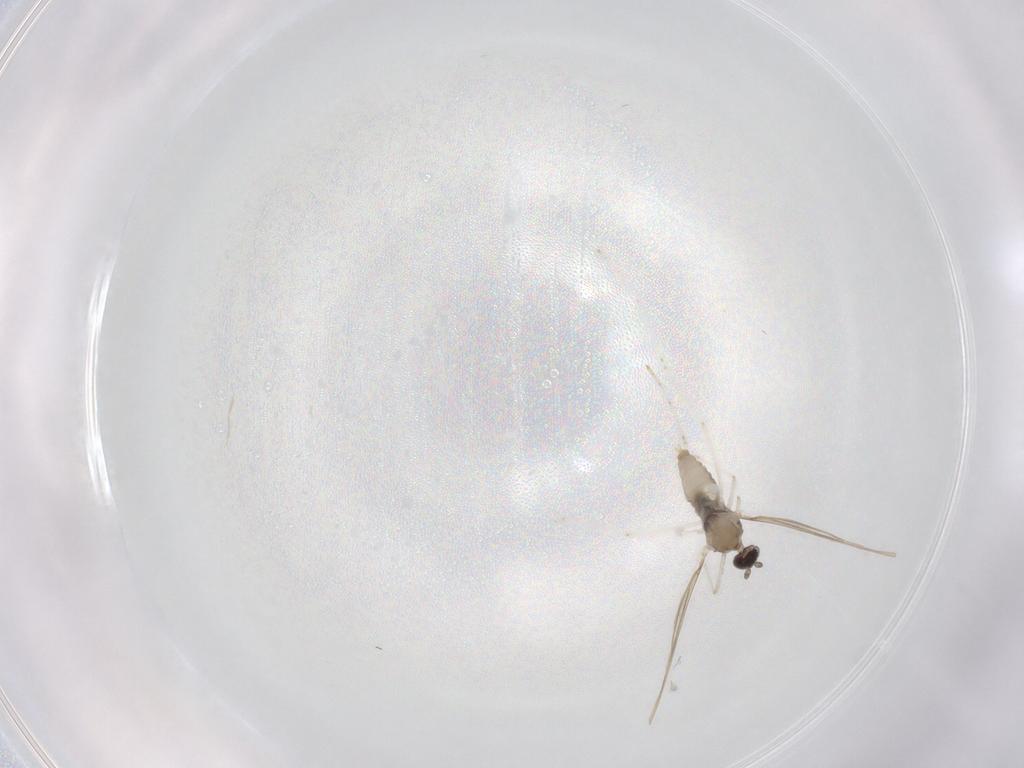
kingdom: Animalia
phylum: Arthropoda
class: Insecta
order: Diptera
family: Cecidomyiidae
